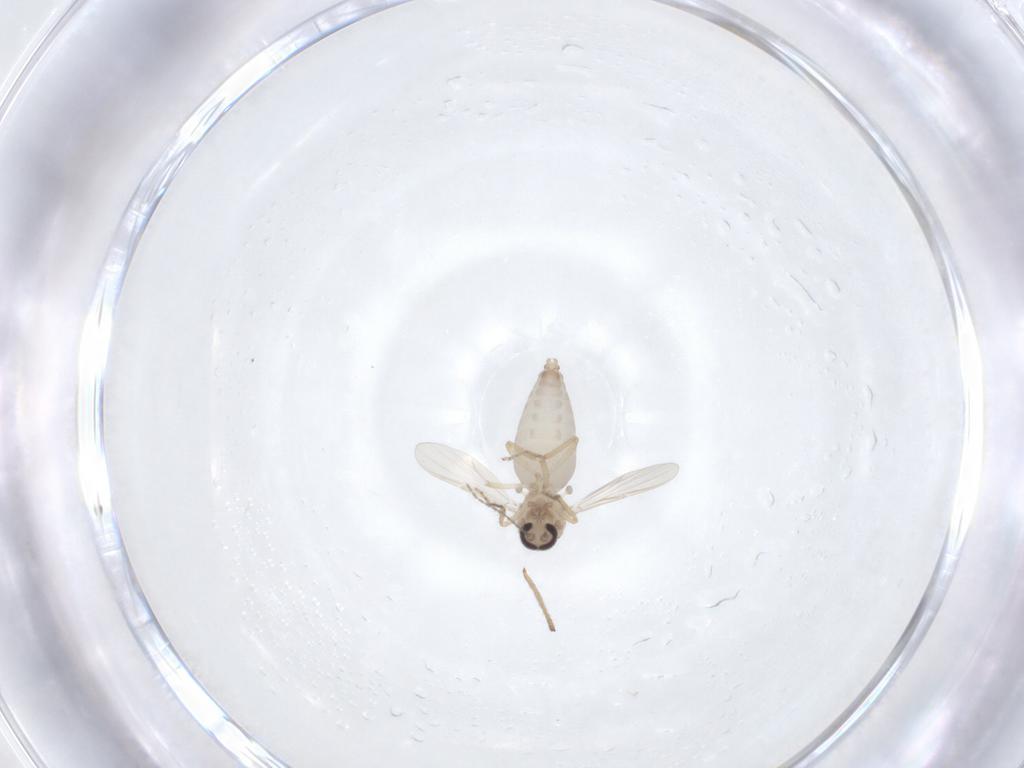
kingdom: Animalia
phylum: Arthropoda
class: Insecta
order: Diptera
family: Ceratopogonidae
